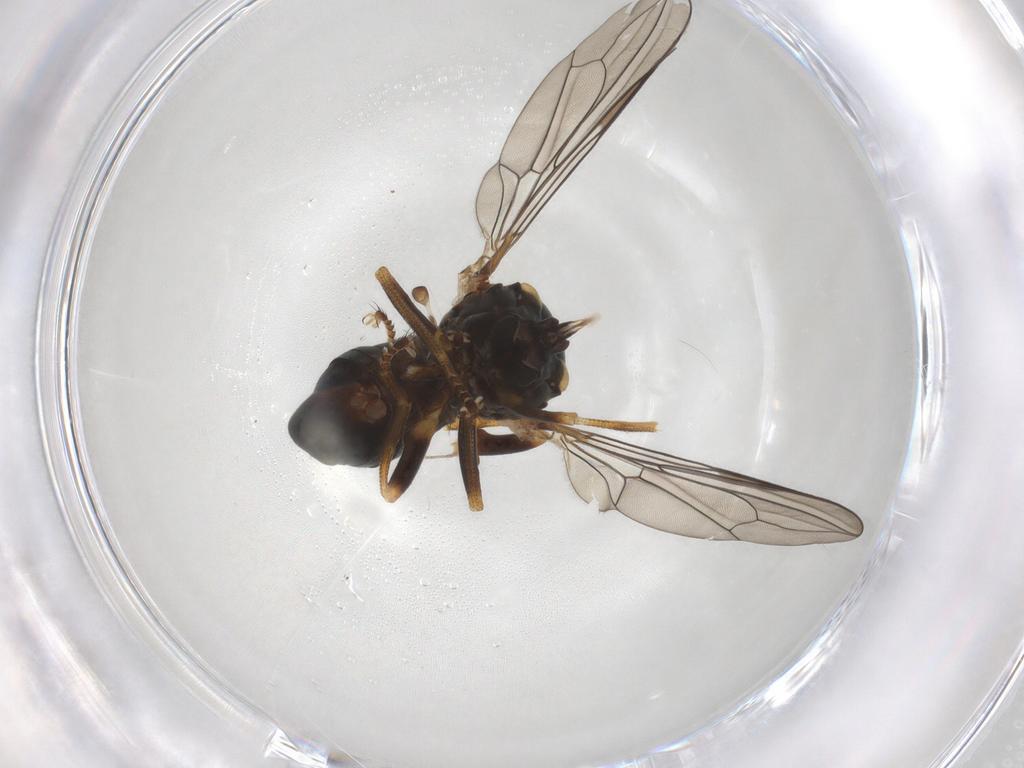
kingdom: Animalia
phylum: Arthropoda
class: Insecta
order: Diptera
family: Pipunculidae
